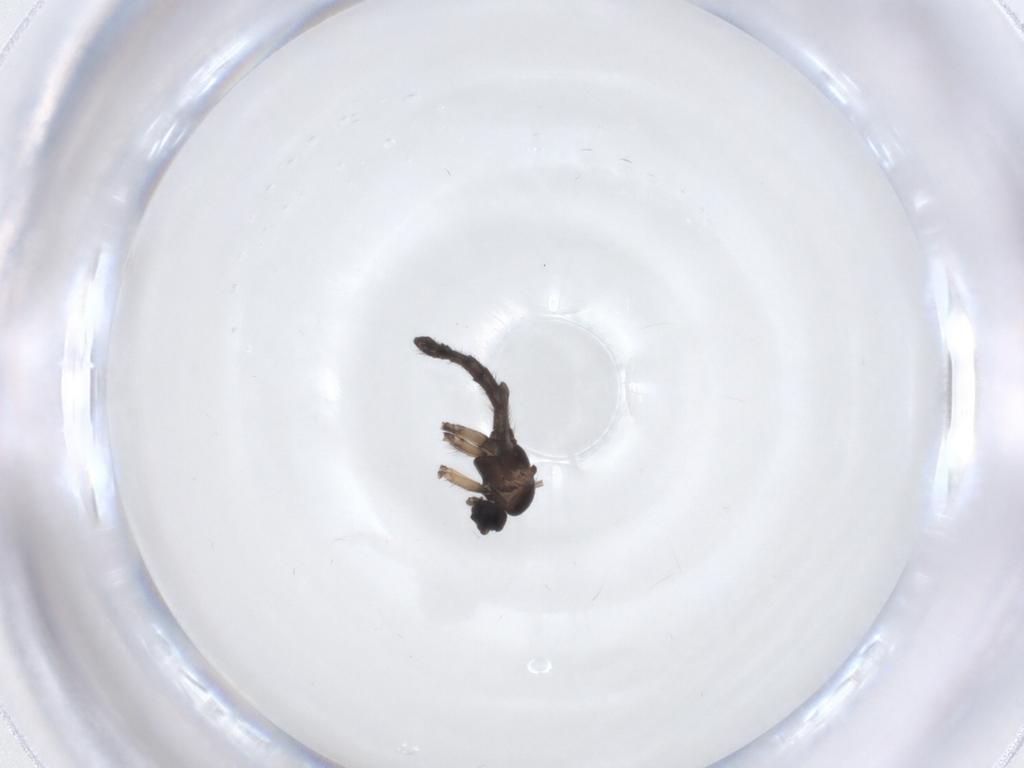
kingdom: Animalia
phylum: Arthropoda
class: Insecta
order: Diptera
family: Sciaridae
